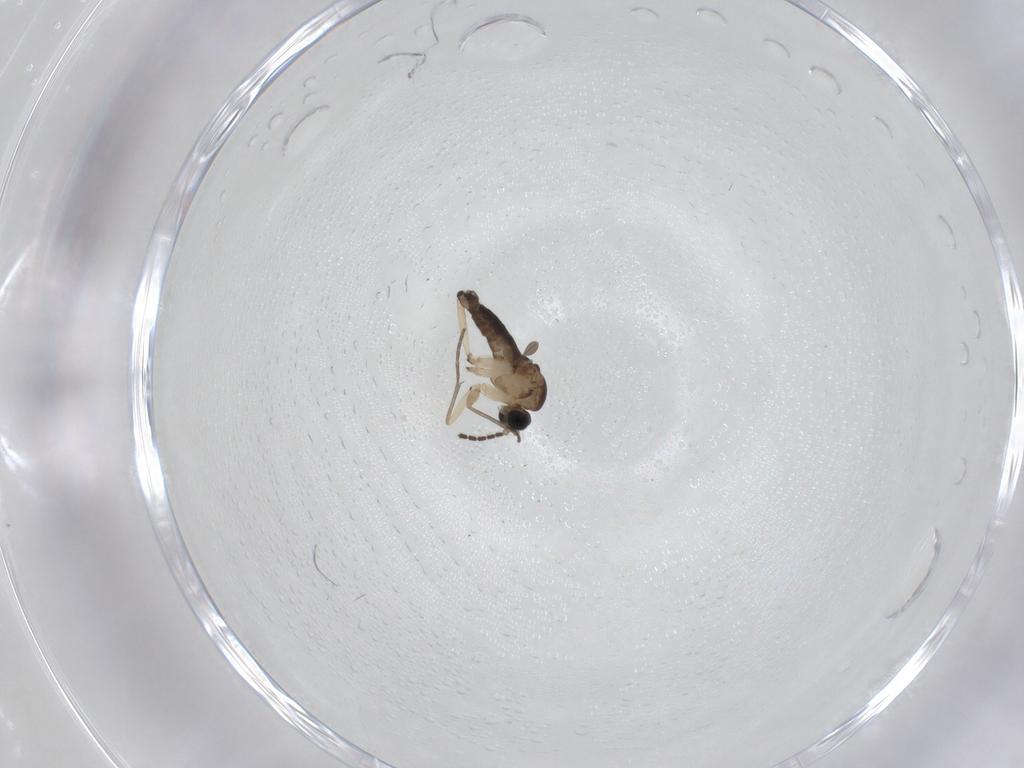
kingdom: Animalia
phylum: Arthropoda
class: Insecta
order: Diptera
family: Sciaridae
